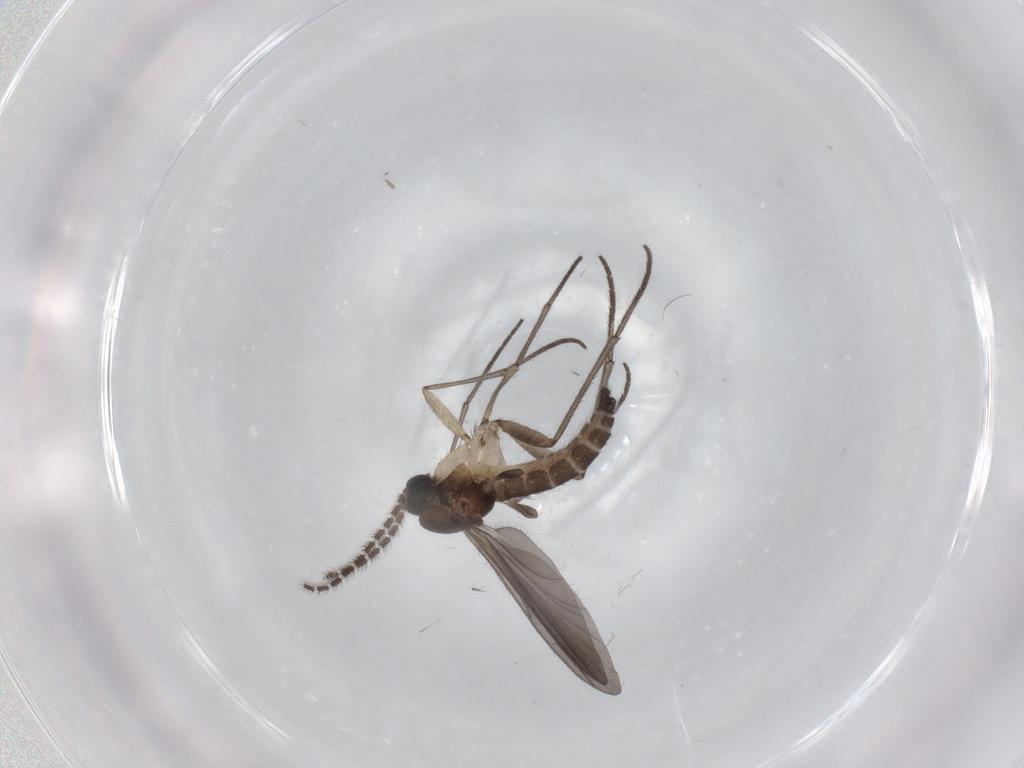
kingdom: Animalia
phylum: Arthropoda
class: Insecta
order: Diptera
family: Sciaridae
